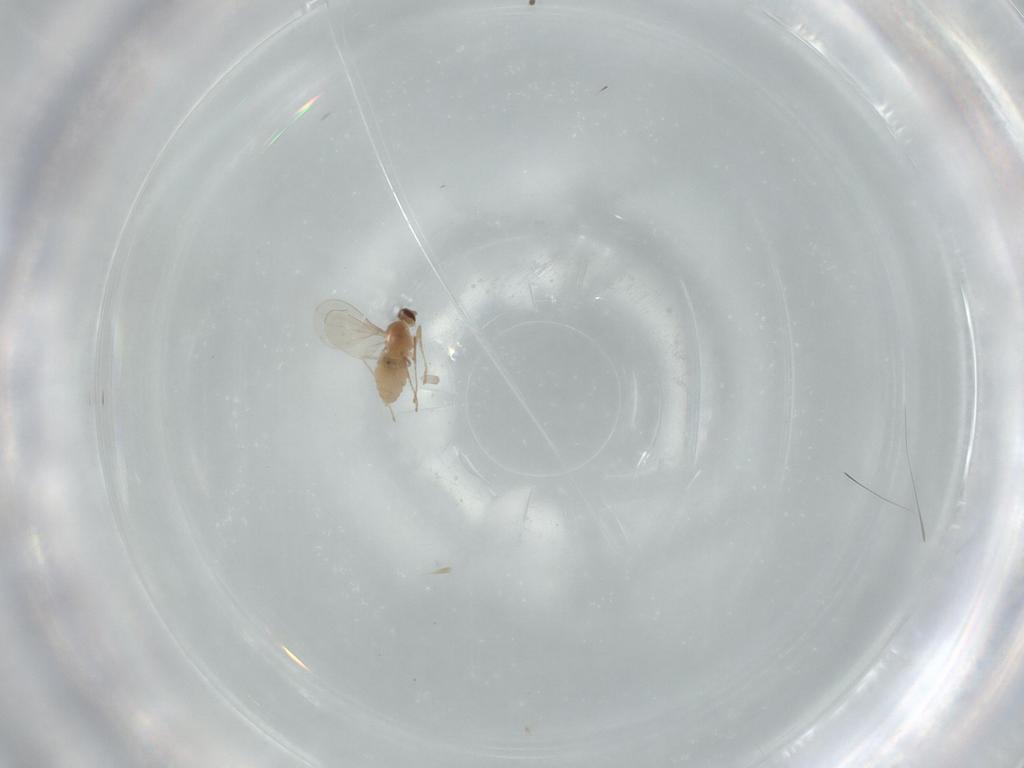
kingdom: Animalia
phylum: Arthropoda
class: Insecta
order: Diptera
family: Cecidomyiidae
